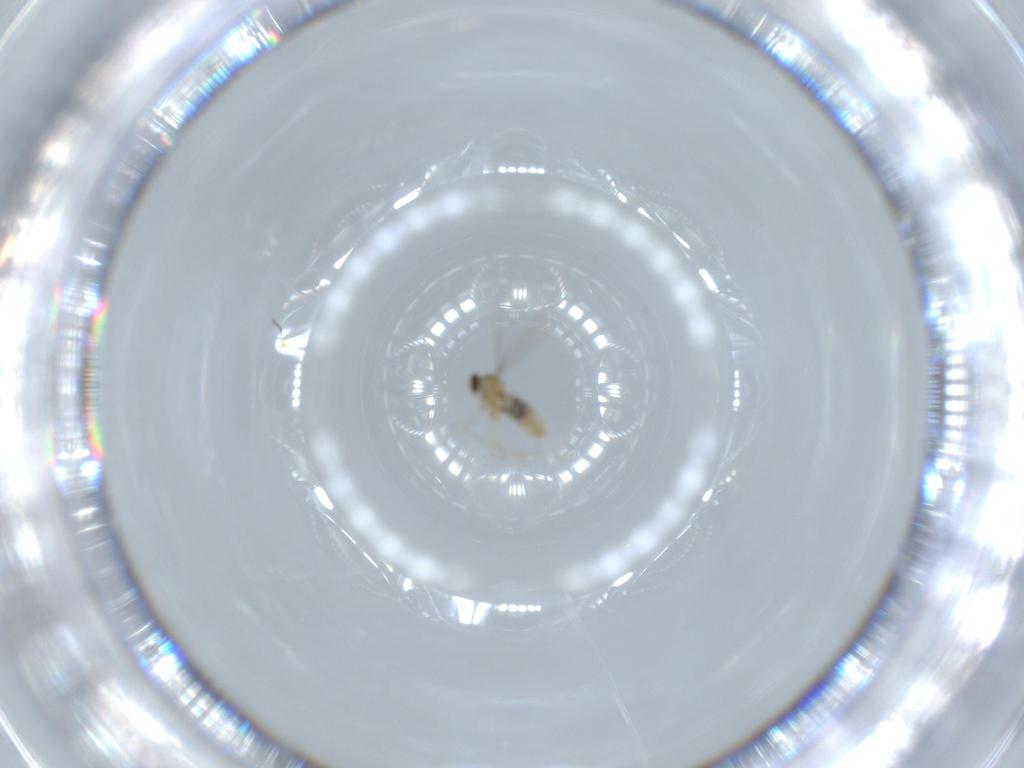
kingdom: Animalia
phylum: Arthropoda
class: Insecta
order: Diptera
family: Cecidomyiidae
